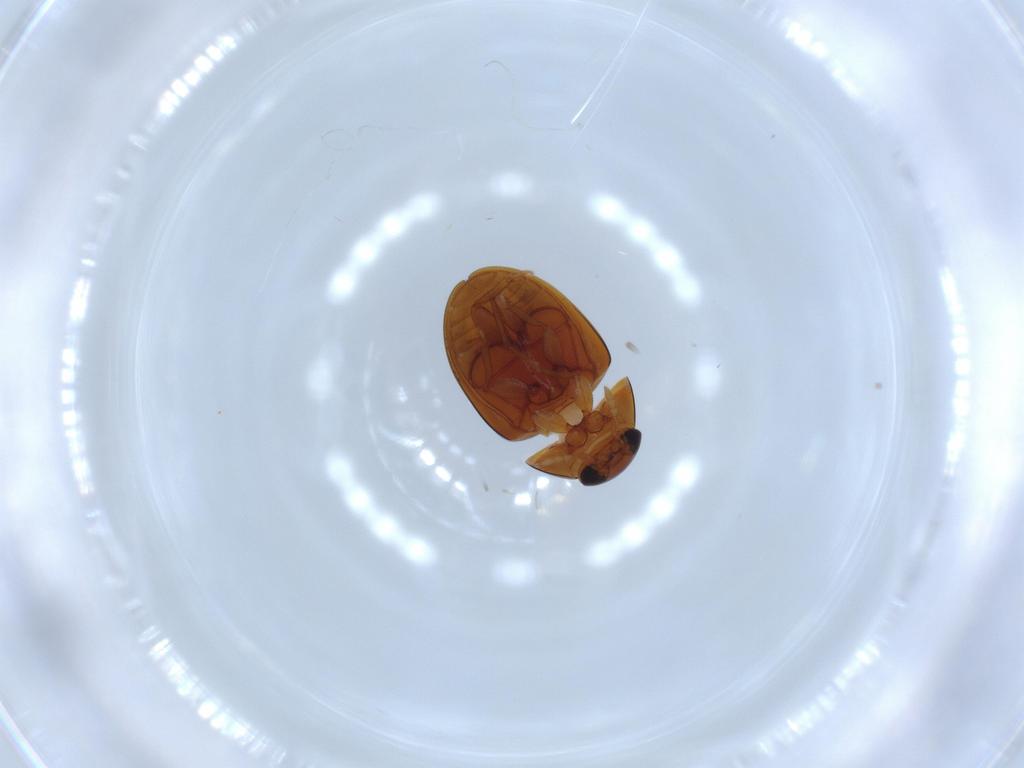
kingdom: Animalia
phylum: Arthropoda
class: Insecta
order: Coleoptera
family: Phalacridae
